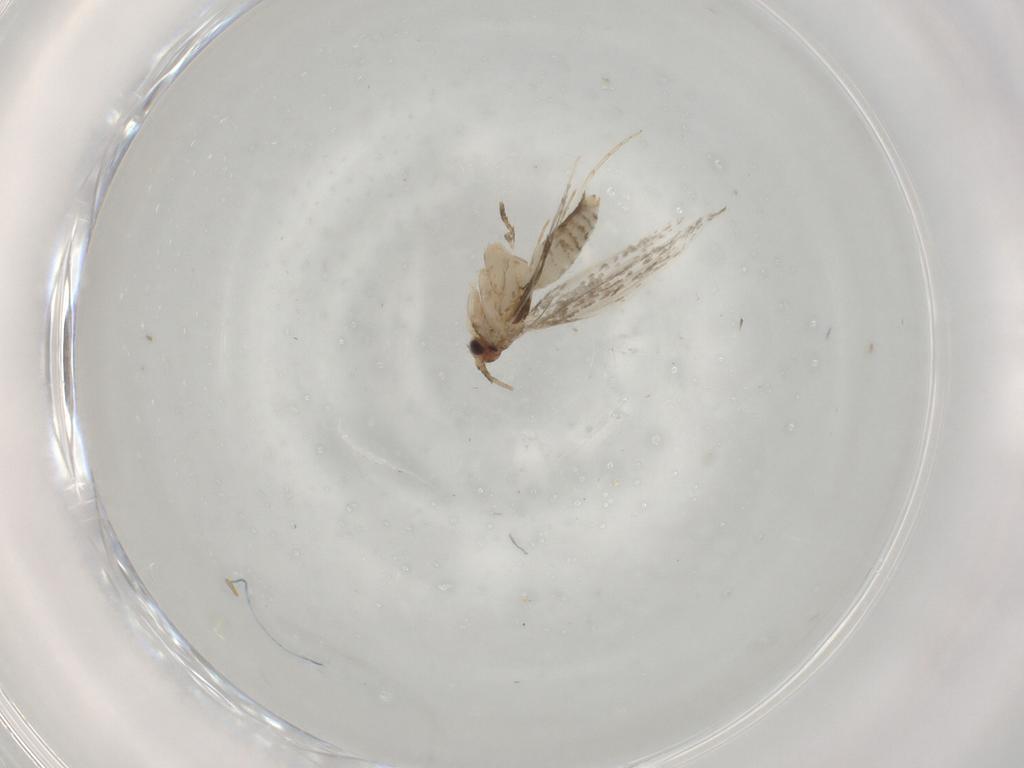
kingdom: Animalia
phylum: Arthropoda
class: Insecta
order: Lepidoptera
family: Meessiidae
